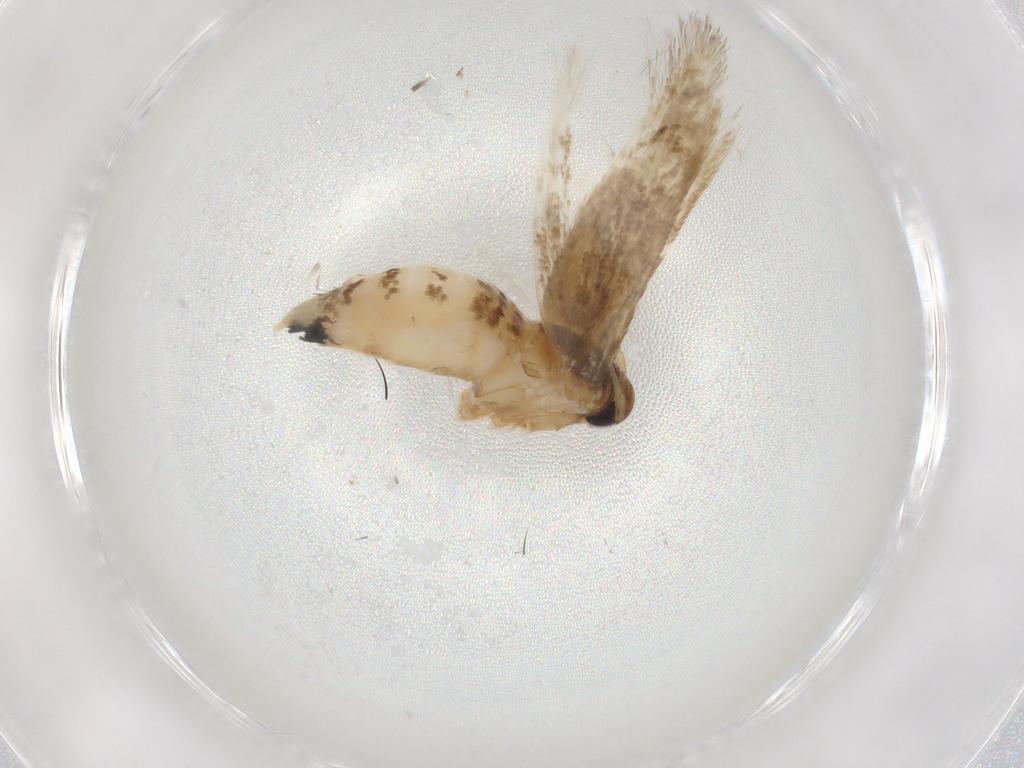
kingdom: Animalia
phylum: Arthropoda
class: Insecta
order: Lepidoptera
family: Cosmopterigidae
